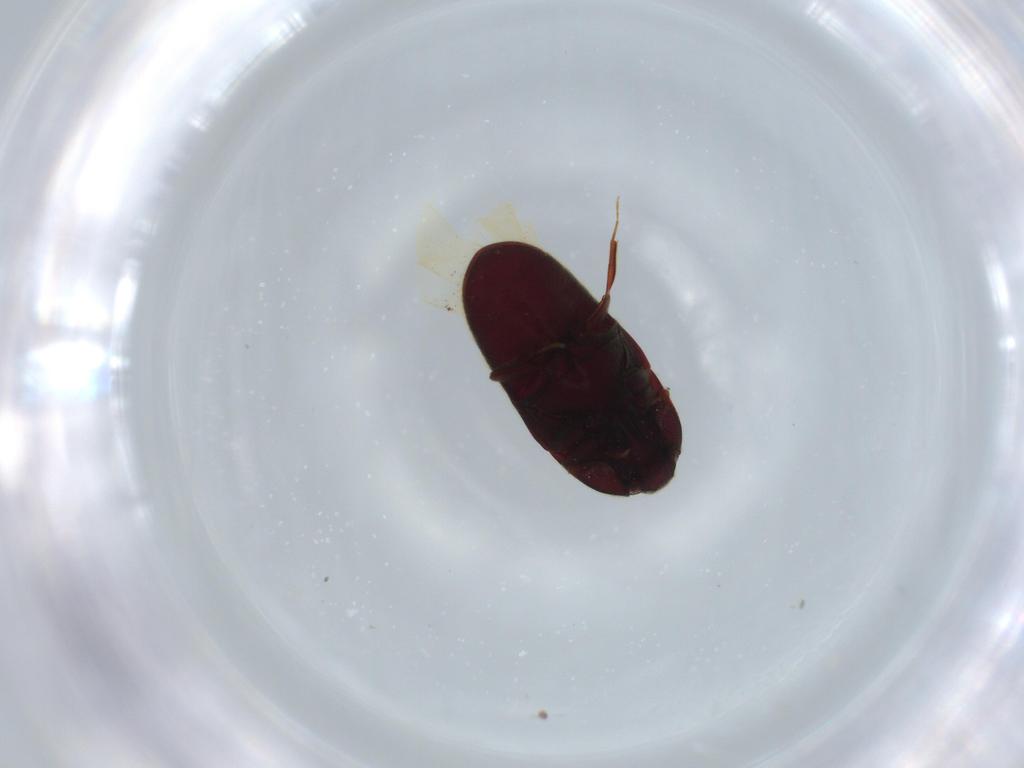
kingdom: Animalia
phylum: Arthropoda
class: Insecta
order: Coleoptera
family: Throscidae
